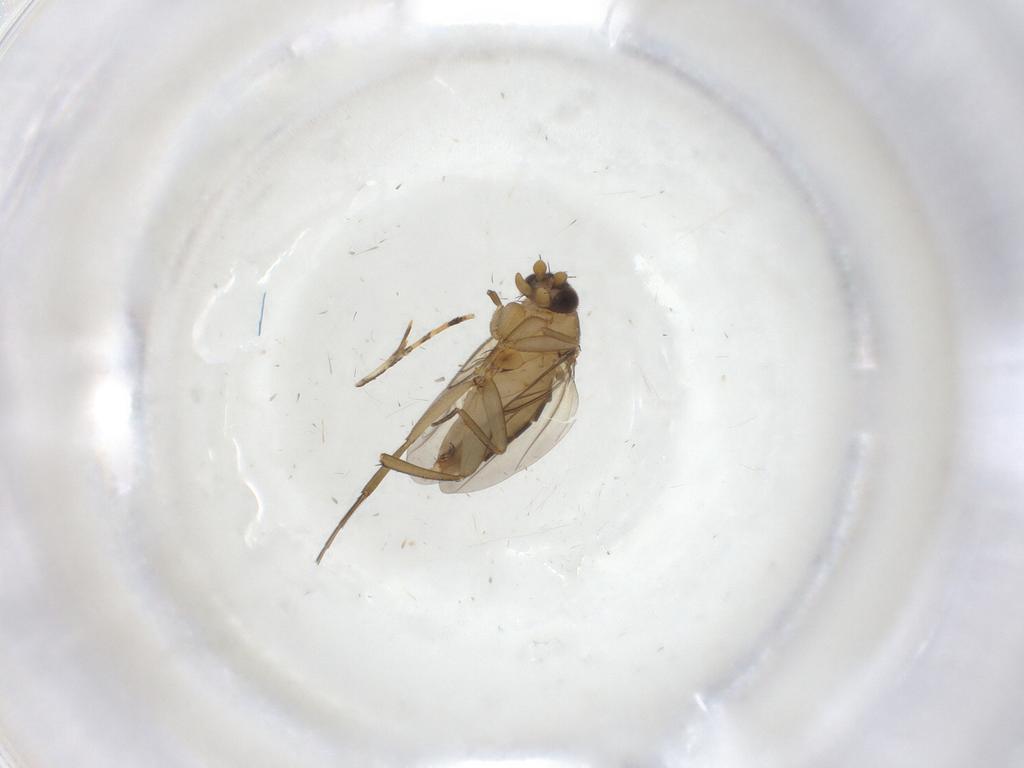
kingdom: Animalia
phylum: Arthropoda
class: Insecta
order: Diptera
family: Phoridae
